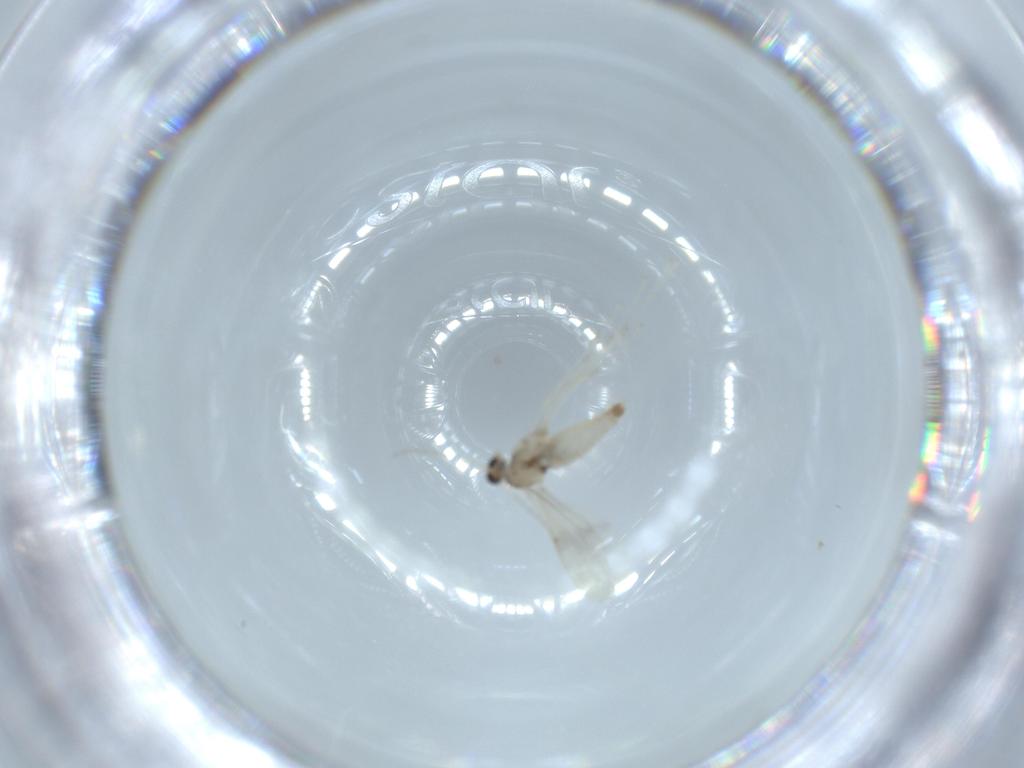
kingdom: Animalia
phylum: Arthropoda
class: Insecta
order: Diptera
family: Cecidomyiidae
